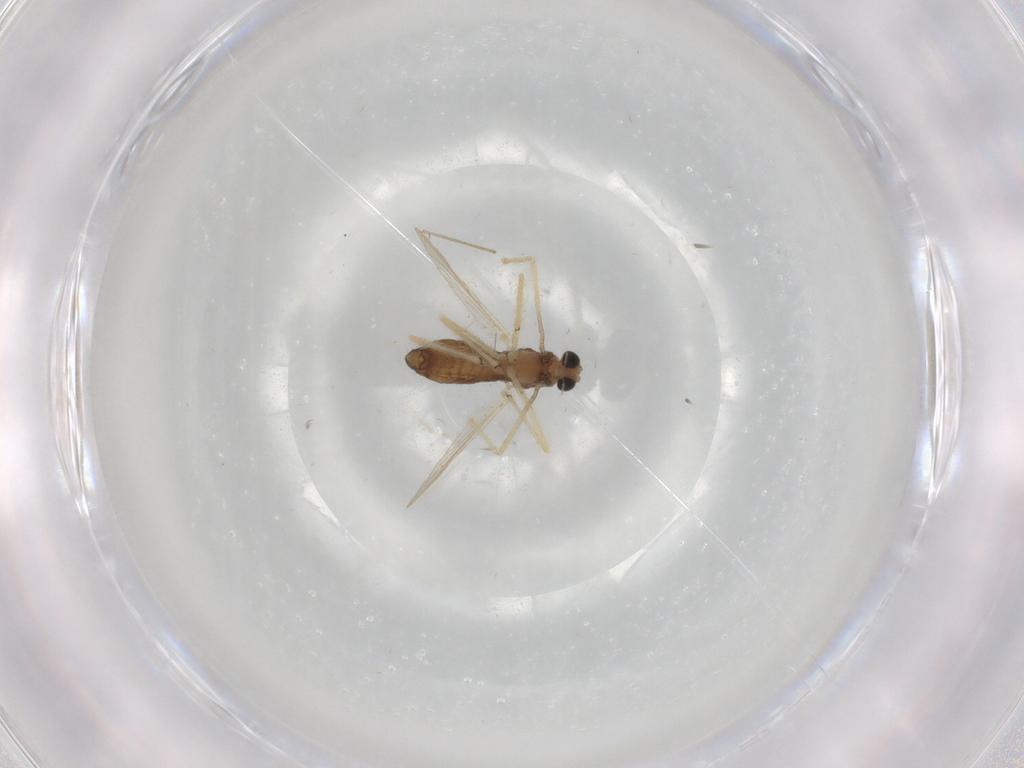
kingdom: Animalia
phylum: Arthropoda
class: Insecta
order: Diptera
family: Chironomidae
